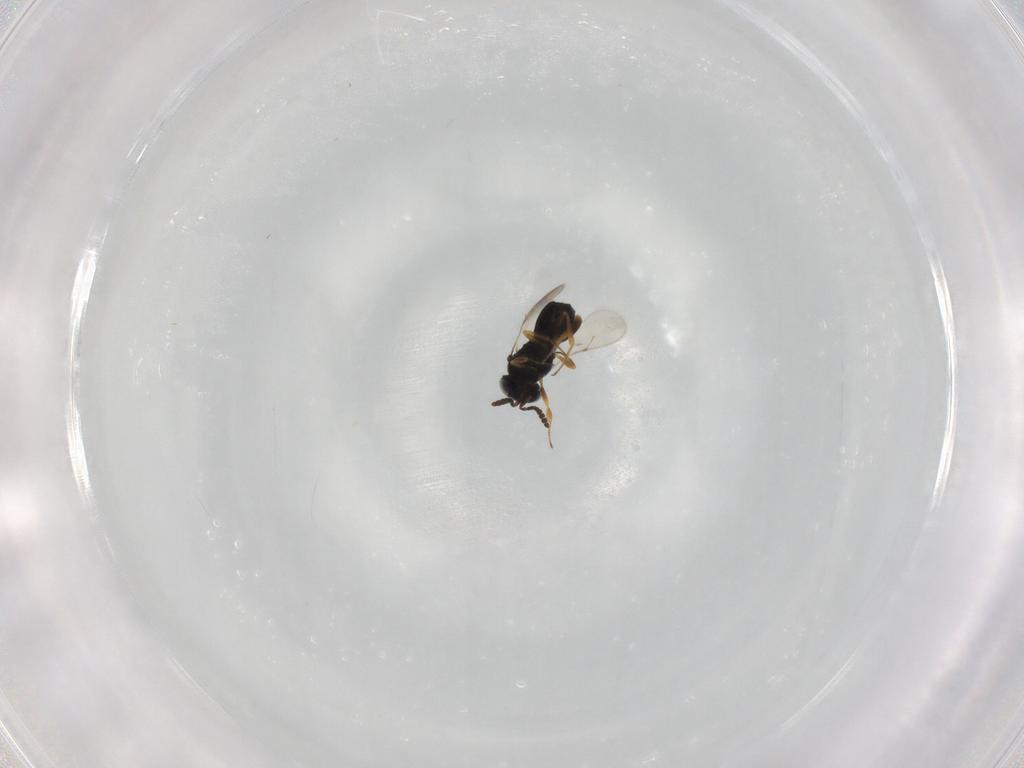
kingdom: Animalia
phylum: Arthropoda
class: Insecta
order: Hymenoptera
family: Scelionidae
